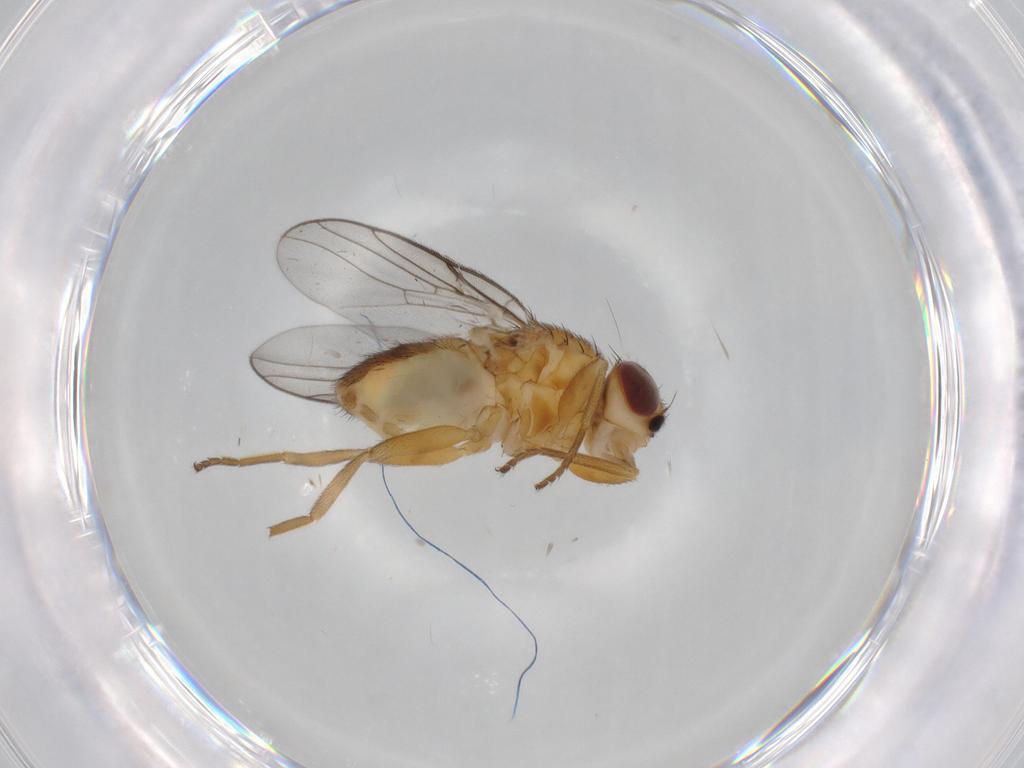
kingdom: Animalia
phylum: Arthropoda
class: Insecta
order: Diptera
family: Chloropidae
